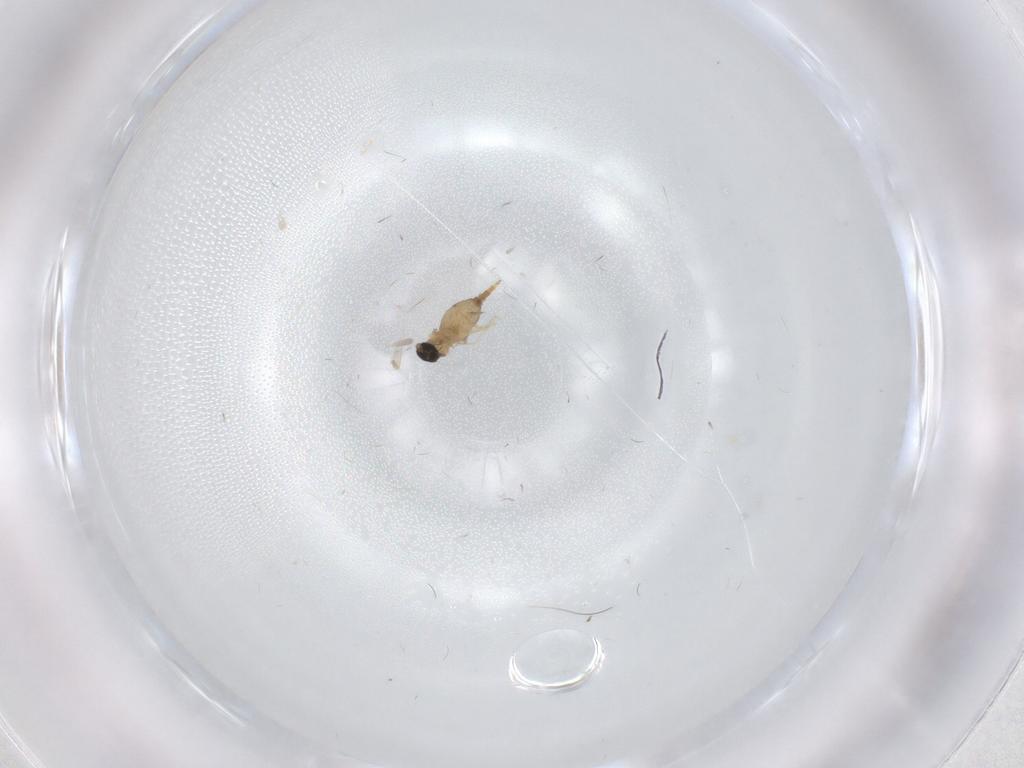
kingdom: Animalia
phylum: Arthropoda
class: Insecta
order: Diptera
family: Cecidomyiidae
